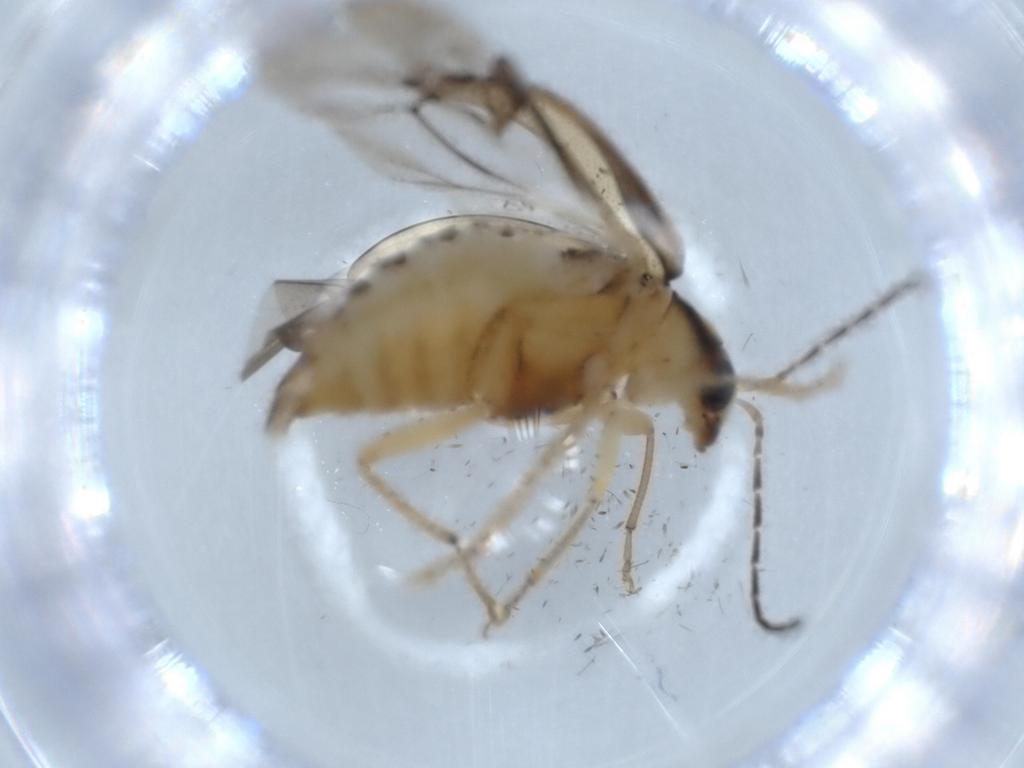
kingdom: Animalia
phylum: Arthropoda
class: Insecta
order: Coleoptera
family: Chrysomelidae
